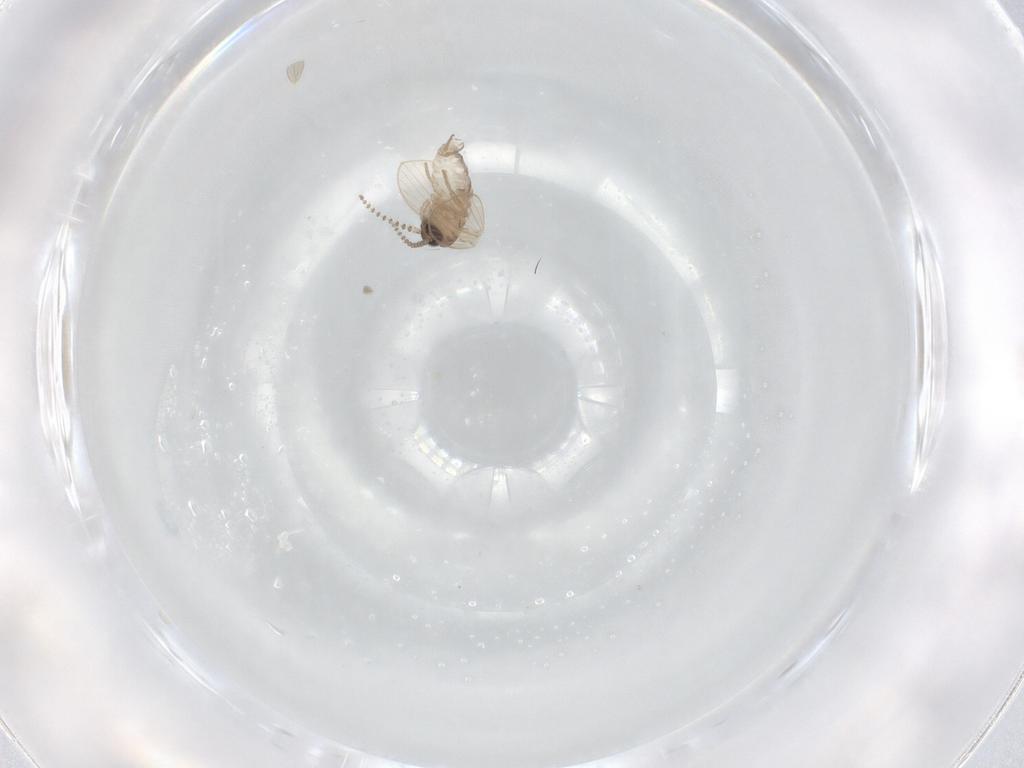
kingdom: Animalia
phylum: Arthropoda
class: Insecta
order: Diptera
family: Psychodidae
